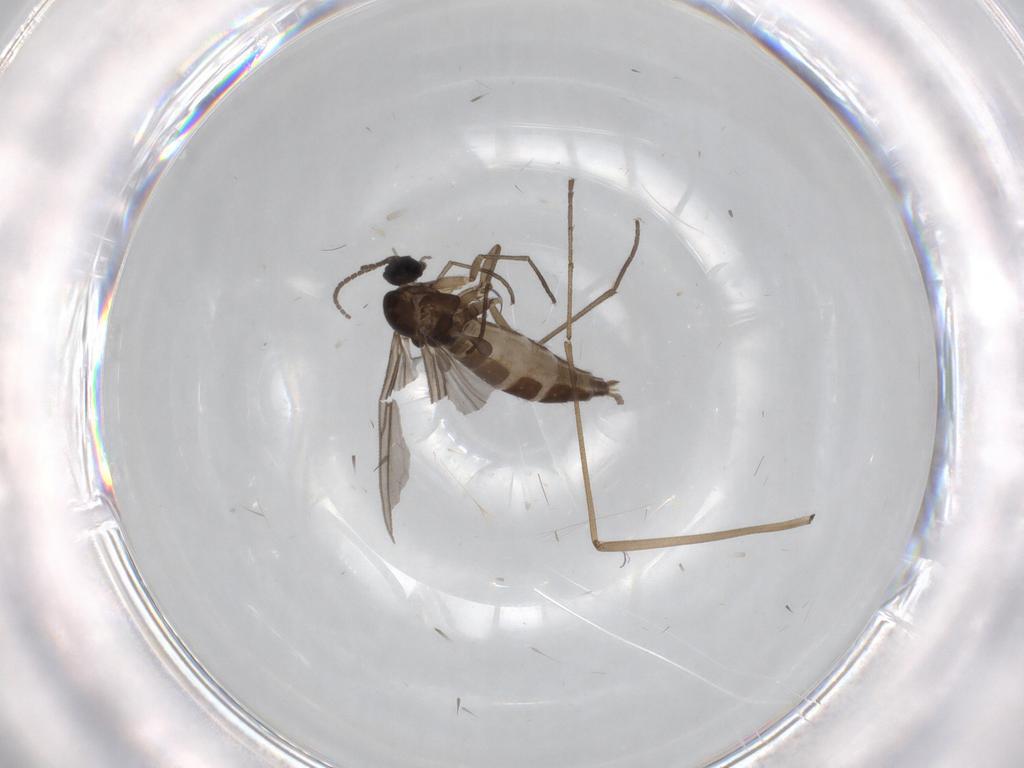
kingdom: Animalia
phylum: Arthropoda
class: Insecta
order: Diptera
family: Sciaridae
